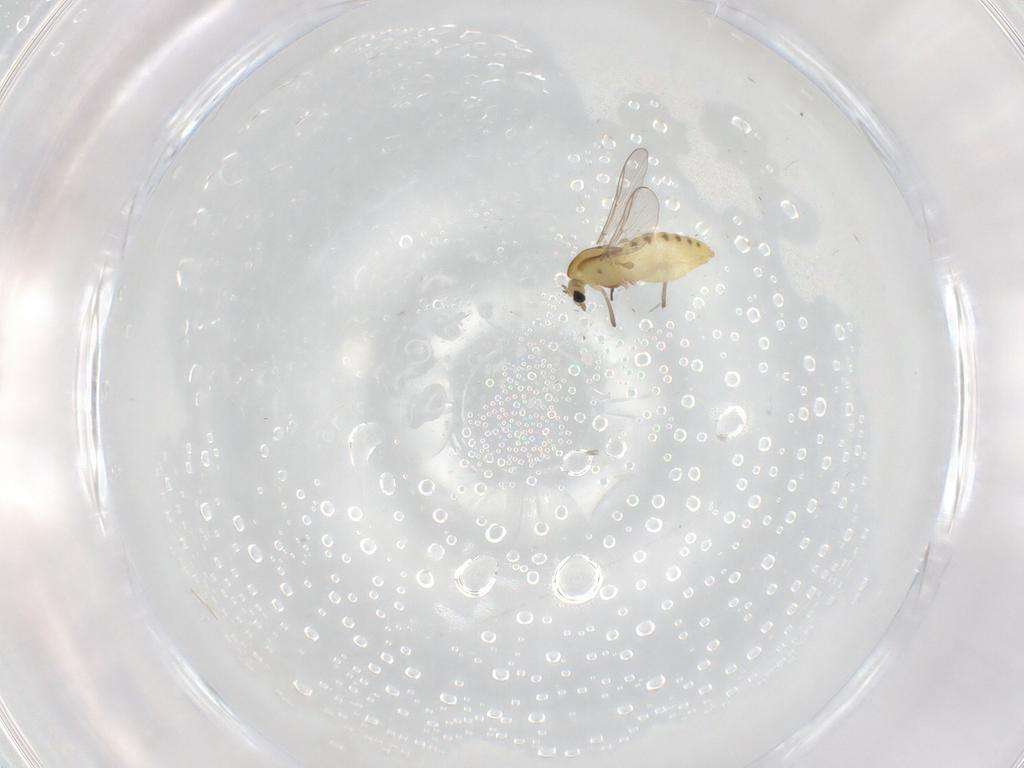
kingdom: Animalia
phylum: Arthropoda
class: Insecta
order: Diptera
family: Chironomidae
